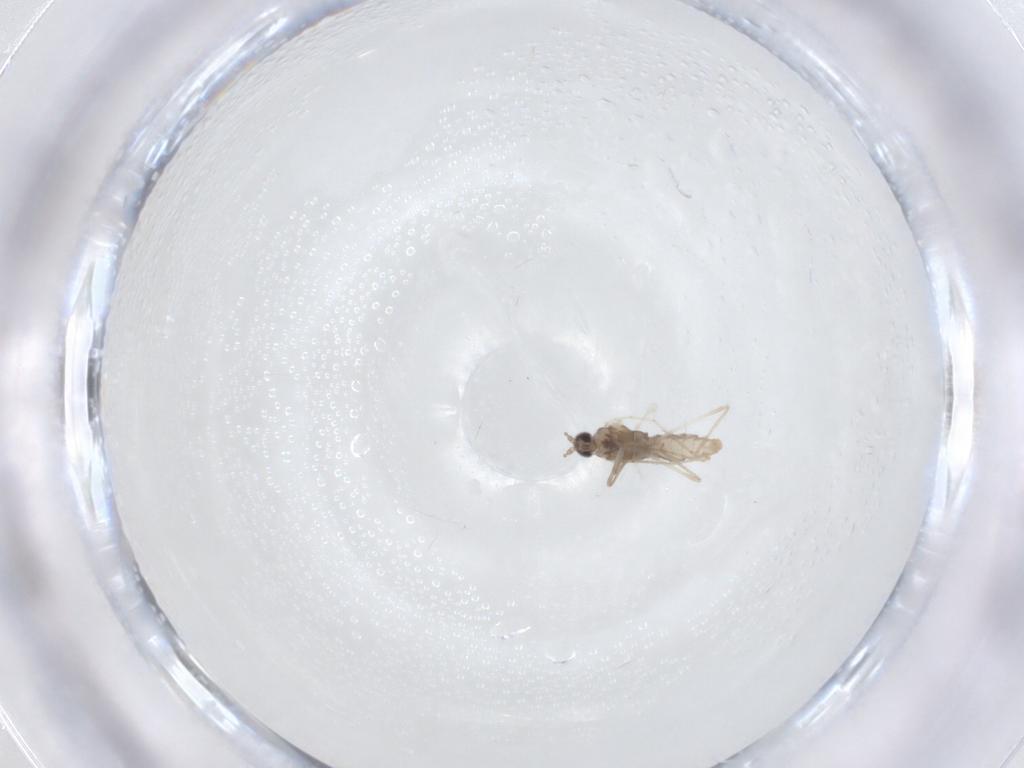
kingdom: Animalia
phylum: Arthropoda
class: Insecta
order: Diptera
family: Cecidomyiidae
